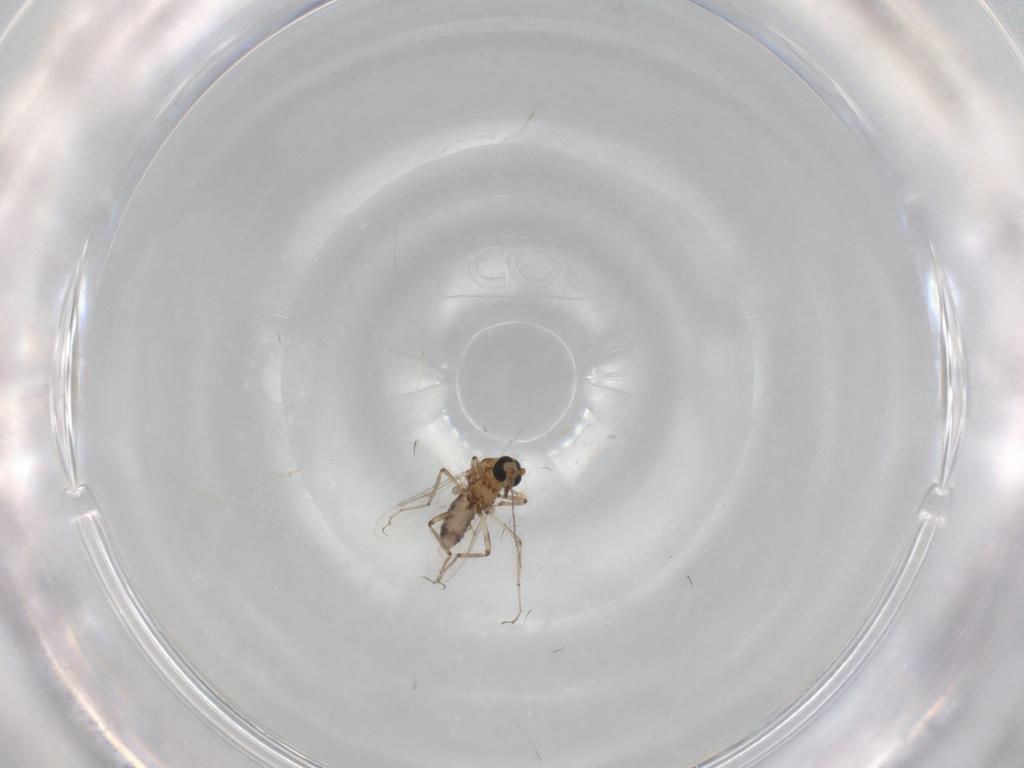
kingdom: Animalia
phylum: Arthropoda
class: Insecta
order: Diptera
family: Ceratopogonidae
